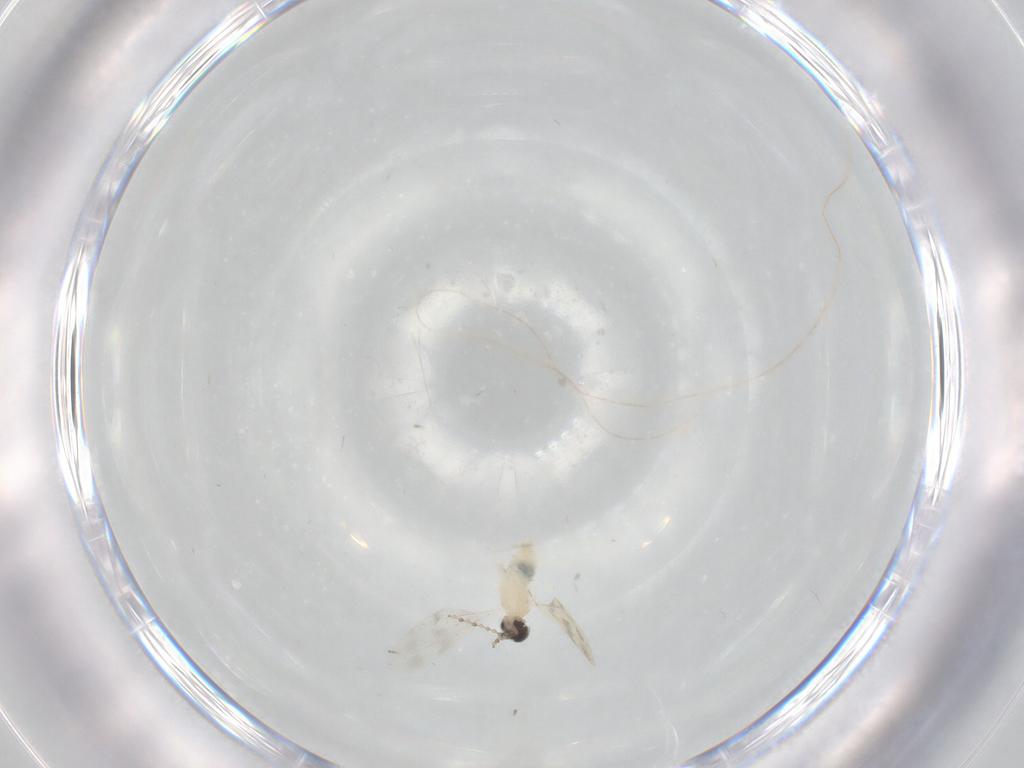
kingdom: Animalia
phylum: Arthropoda
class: Insecta
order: Diptera
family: Cecidomyiidae
